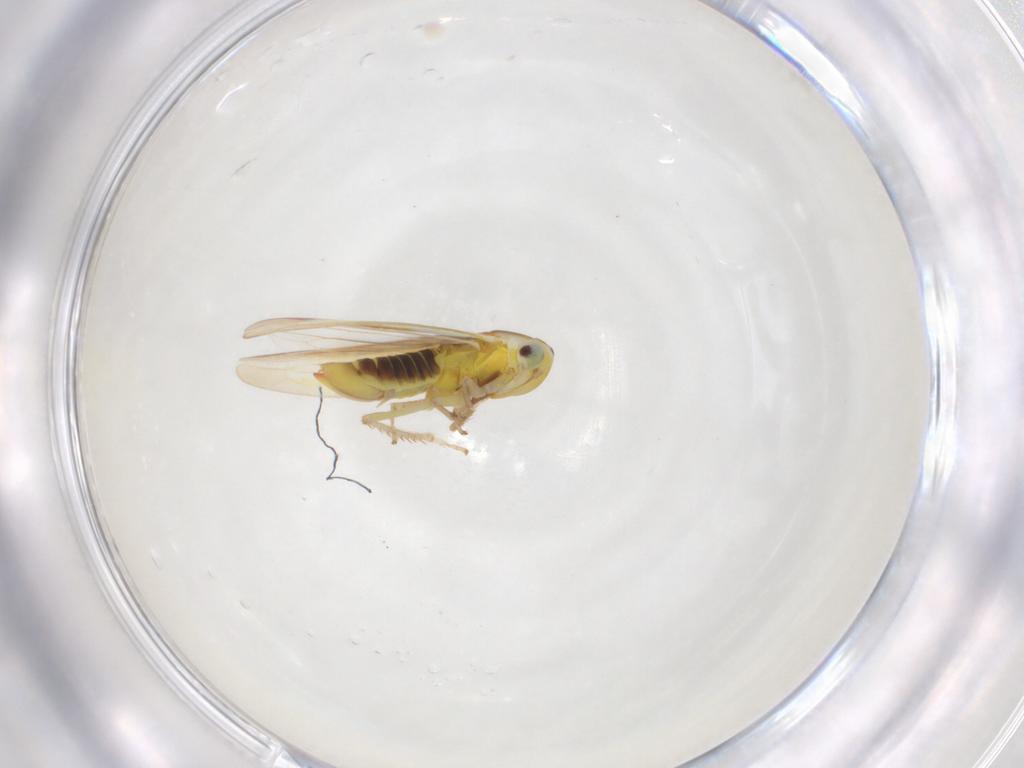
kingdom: Animalia
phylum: Arthropoda
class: Insecta
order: Hemiptera
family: Cicadellidae
